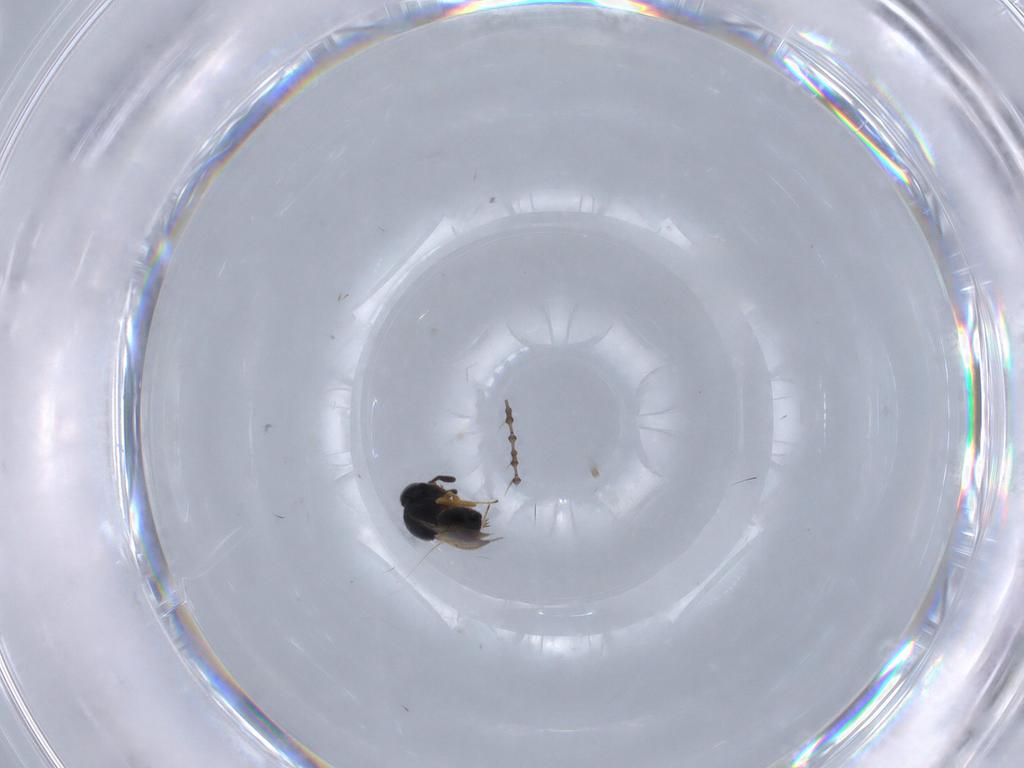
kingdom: Animalia
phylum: Arthropoda
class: Insecta
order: Hymenoptera
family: Scelionidae
